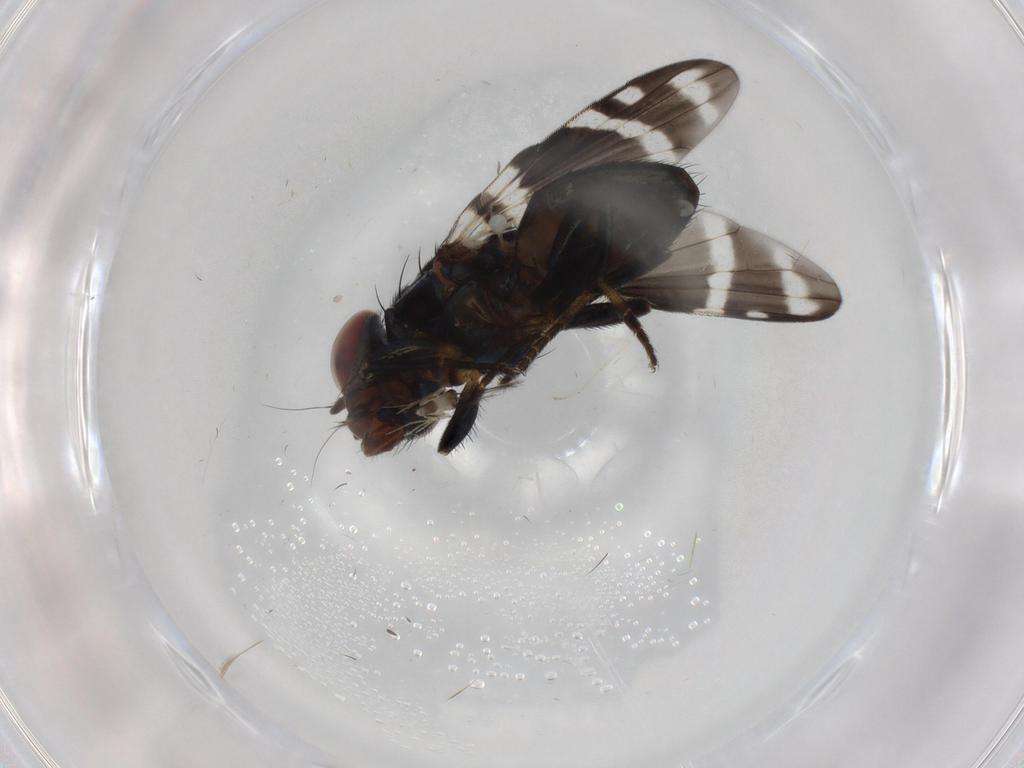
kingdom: Animalia
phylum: Arthropoda
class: Insecta
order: Diptera
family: Ulidiidae
